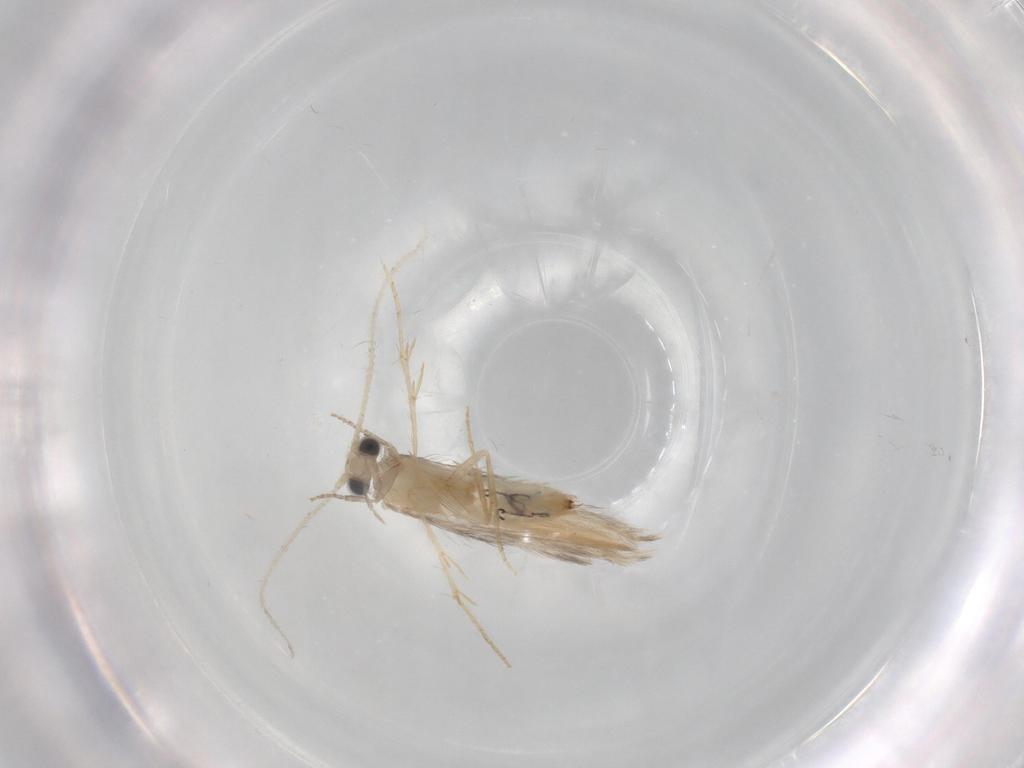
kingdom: Animalia
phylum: Arthropoda
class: Insecta
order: Trichoptera
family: Hydroptilidae
